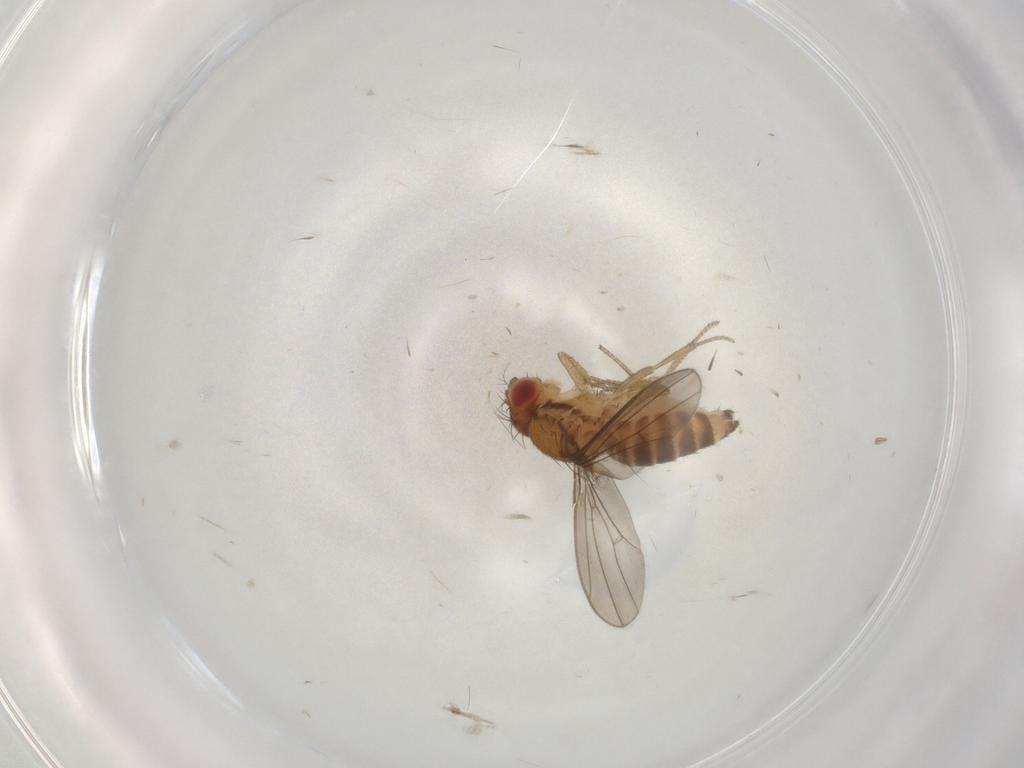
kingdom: Animalia
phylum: Arthropoda
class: Insecta
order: Diptera
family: Drosophilidae
